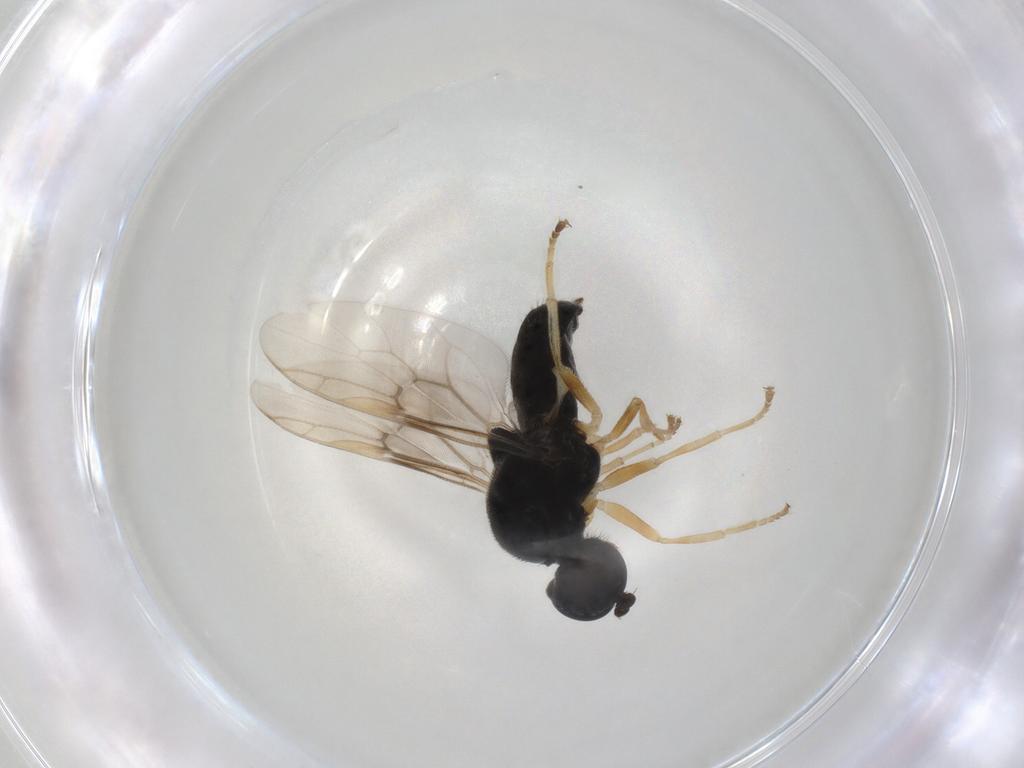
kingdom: Animalia
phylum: Arthropoda
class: Insecta
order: Diptera
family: Stratiomyidae
